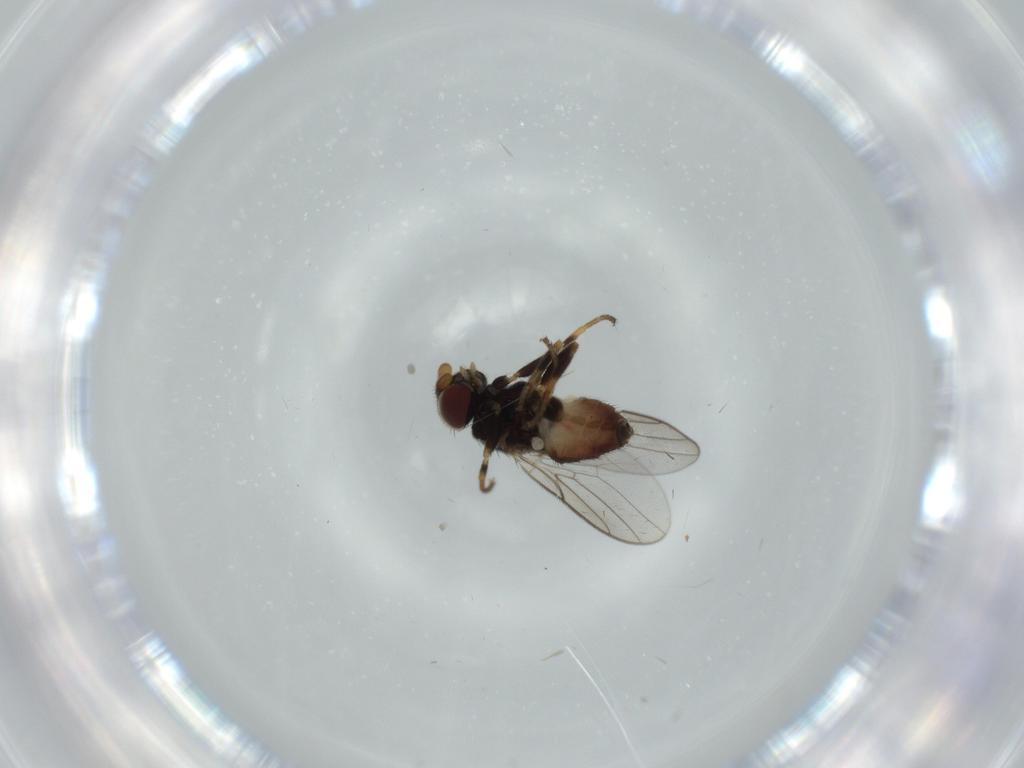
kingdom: Animalia
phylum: Arthropoda
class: Insecta
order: Diptera
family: Chloropidae
